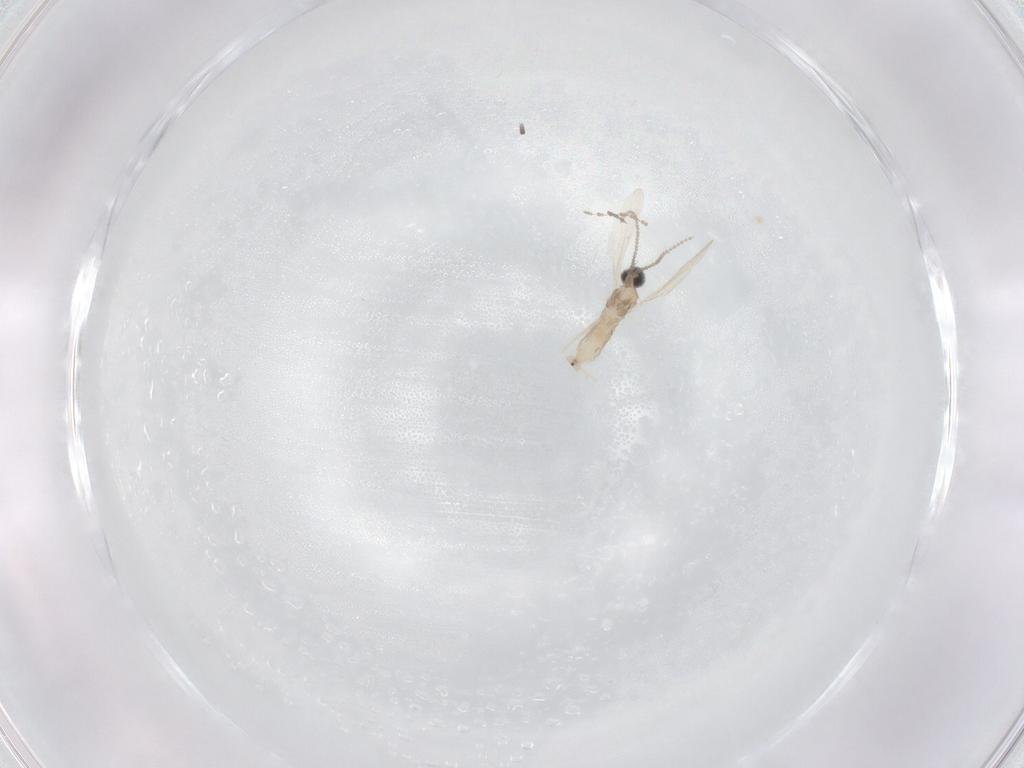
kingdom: Animalia
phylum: Arthropoda
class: Insecta
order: Diptera
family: Cecidomyiidae
